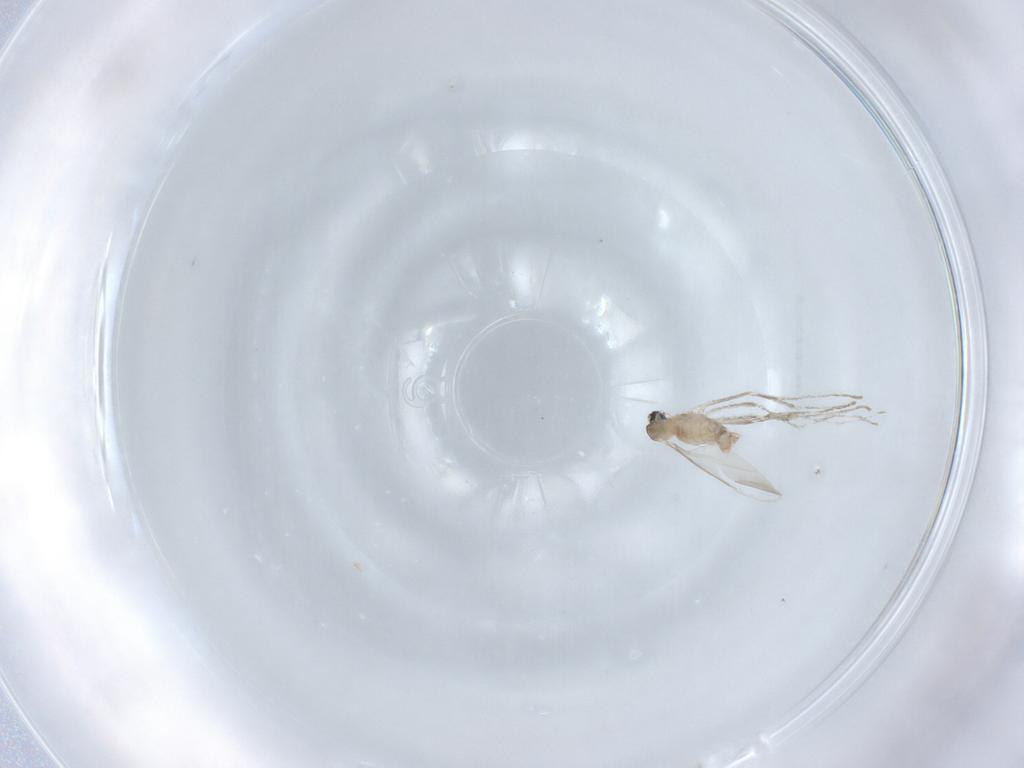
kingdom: Animalia
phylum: Arthropoda
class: Insecta
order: Diptera
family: Cecidomyiidae
